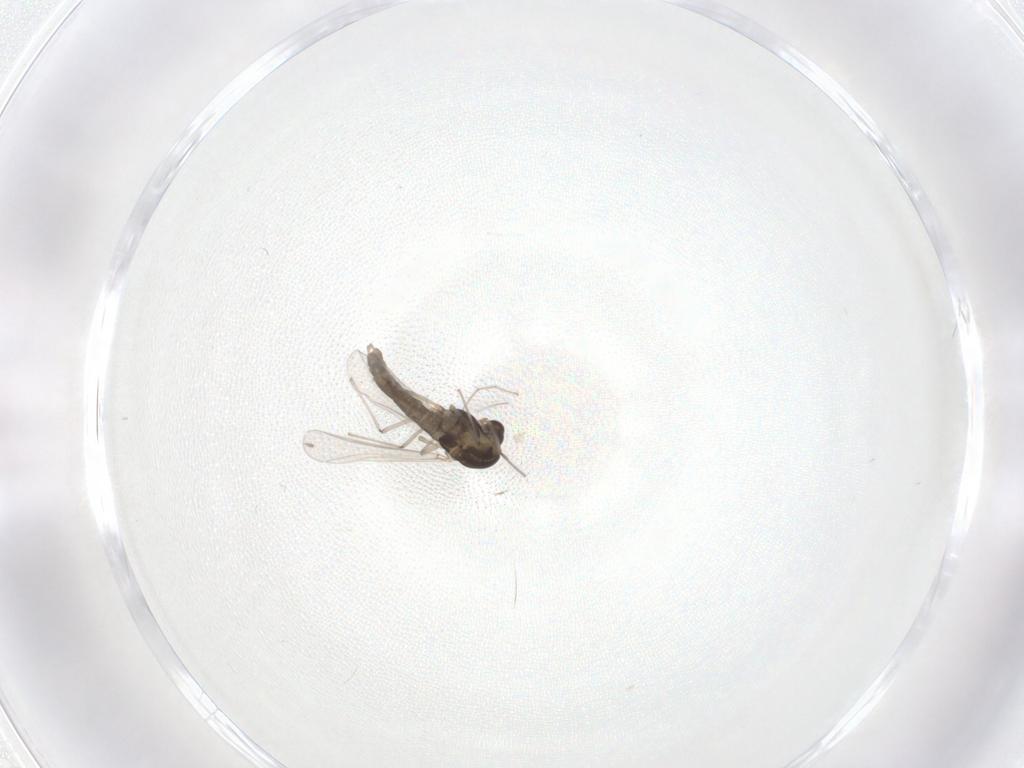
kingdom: Animalia
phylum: Arthropoda
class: Insecta
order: Diptera
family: Chironomidae
